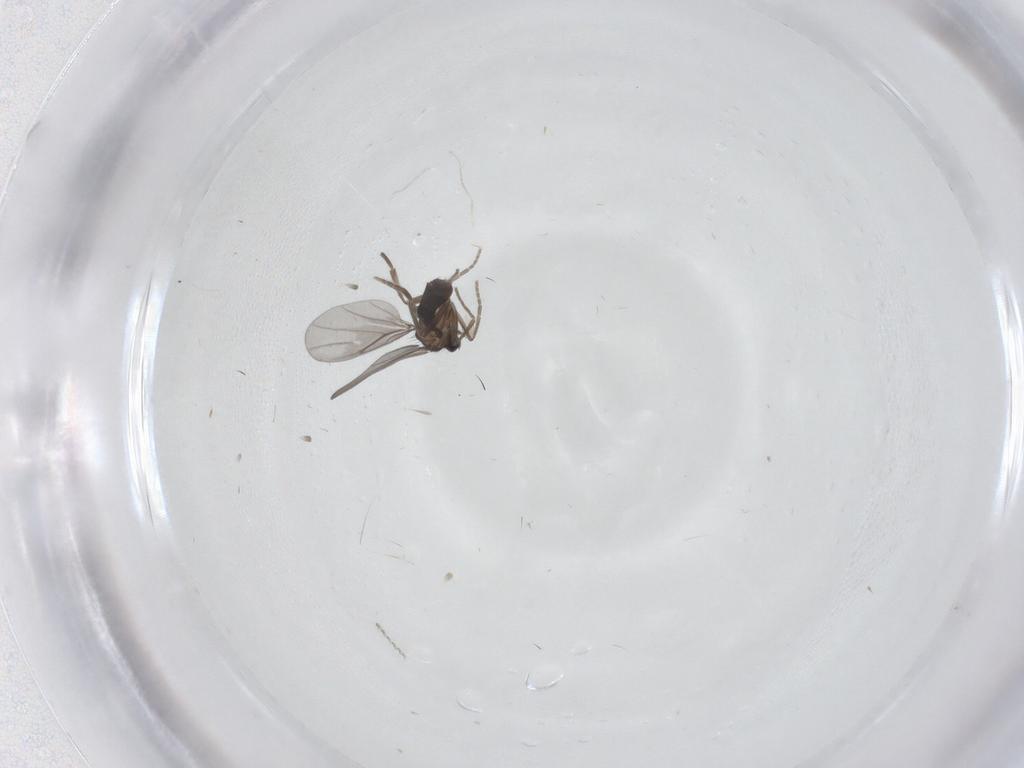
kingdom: Animalia
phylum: Arthropoda
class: Insecta
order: Diptera
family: Cecidomyiidae
